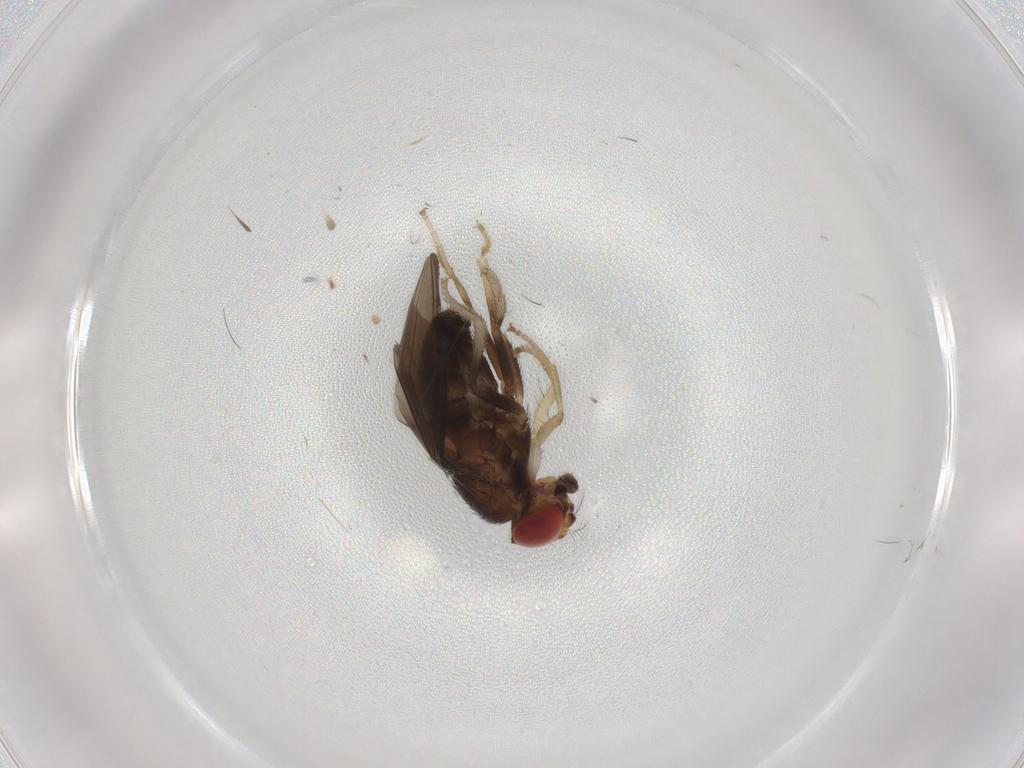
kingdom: Animalia
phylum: Arthropoda
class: Insecta
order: Diptera
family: Drosophilidae
